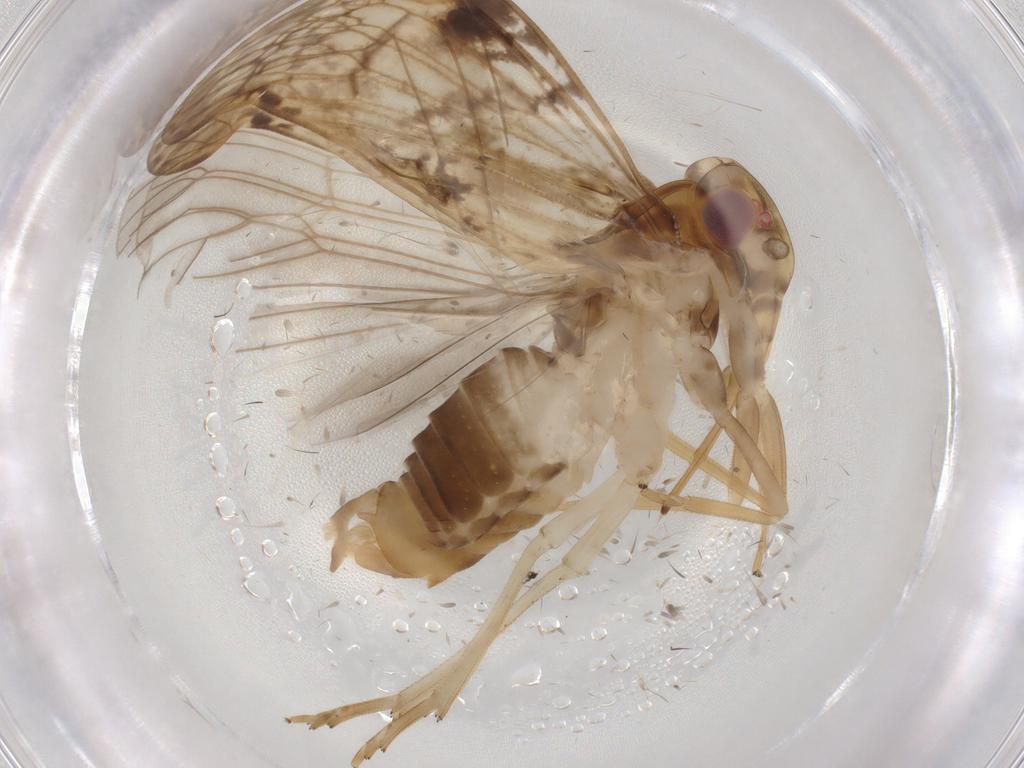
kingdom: Animalia
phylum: Arthropoda
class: Insecta
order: Hemiptera
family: Cixiidae
